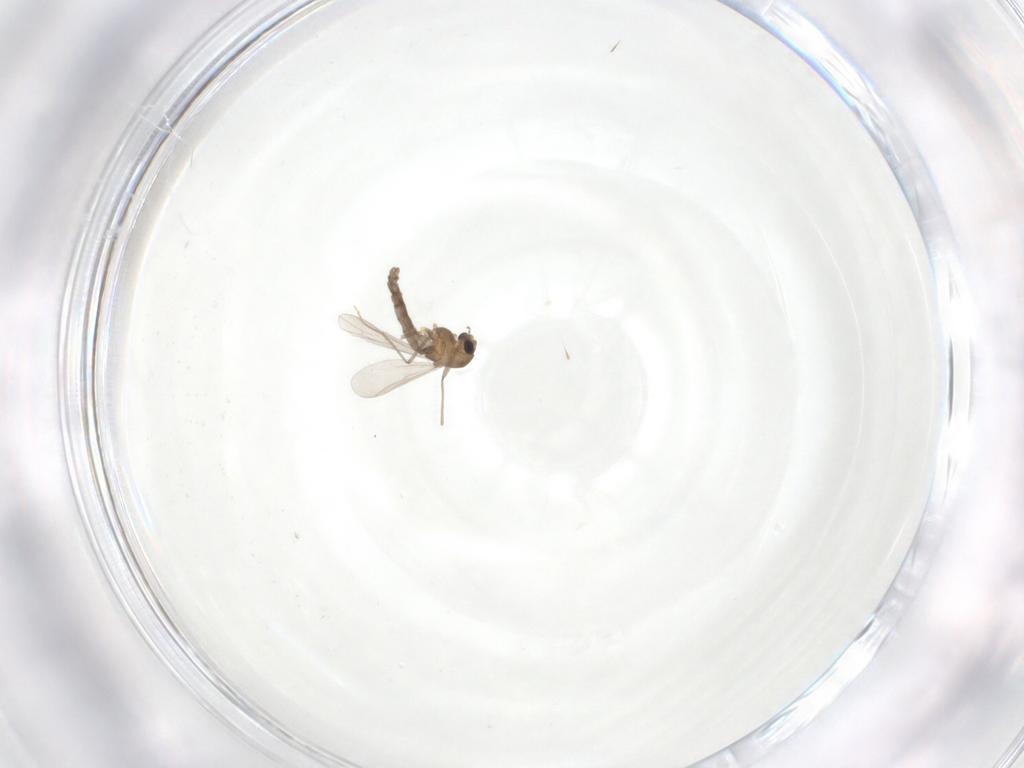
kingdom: Animalia
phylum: Arthropoda
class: Insecta
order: Diptera
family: Chironomidae
